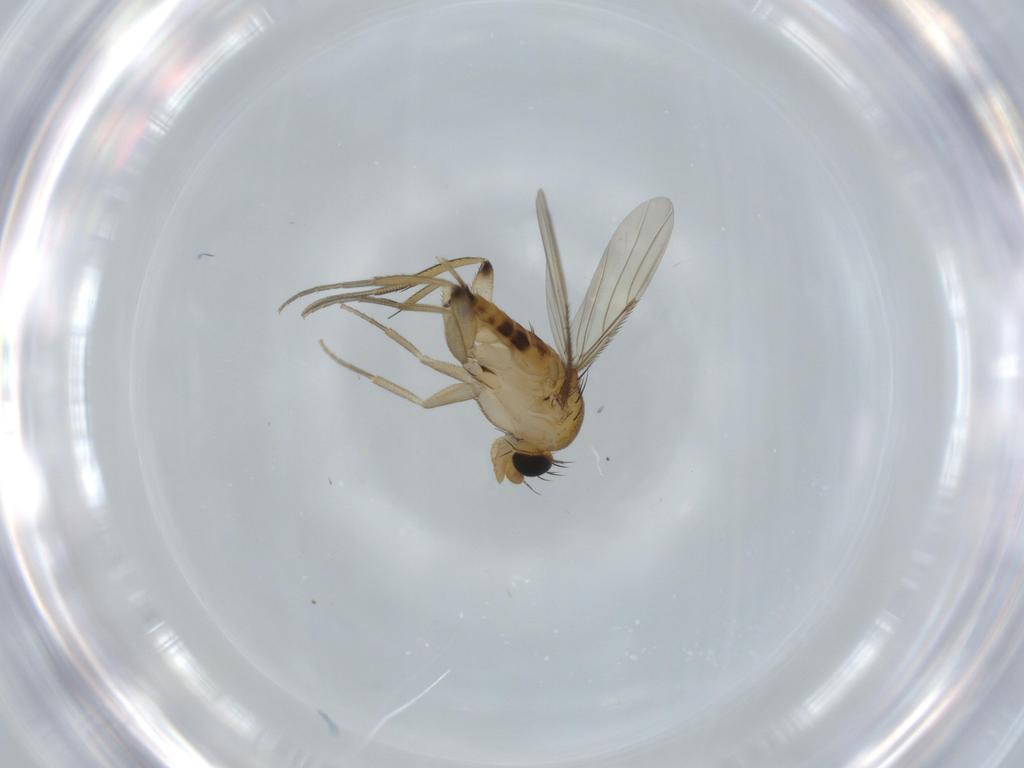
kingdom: Animalia
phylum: Arthropoda
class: Insecta
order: Diptera
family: Phoridae
